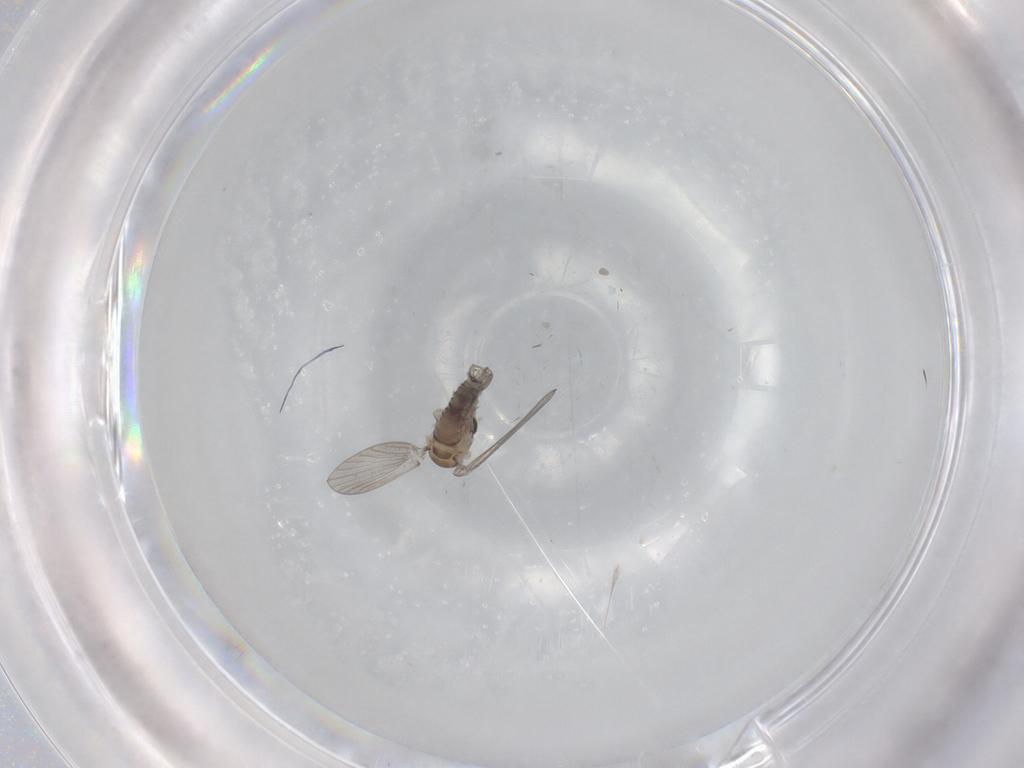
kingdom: Animalia
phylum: Arthropoda
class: Insecta
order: Diptera
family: Psychodidae
